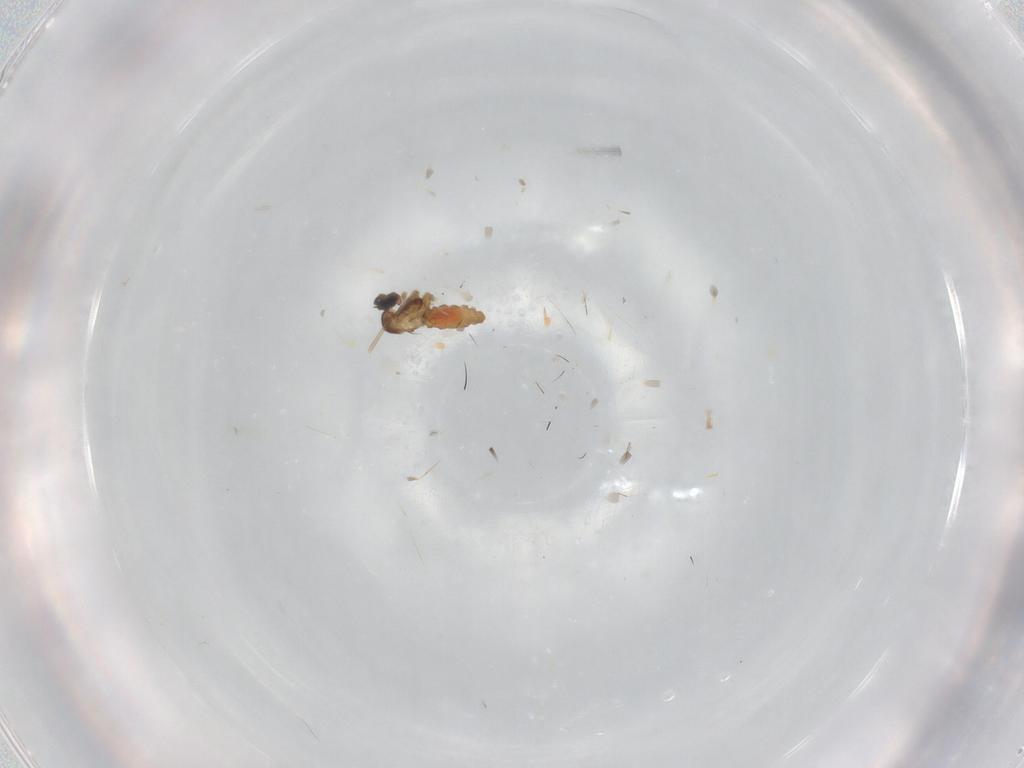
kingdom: Animalia
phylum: Arthropoda
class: Insecta
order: Diptera
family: Cecidomyiidae
